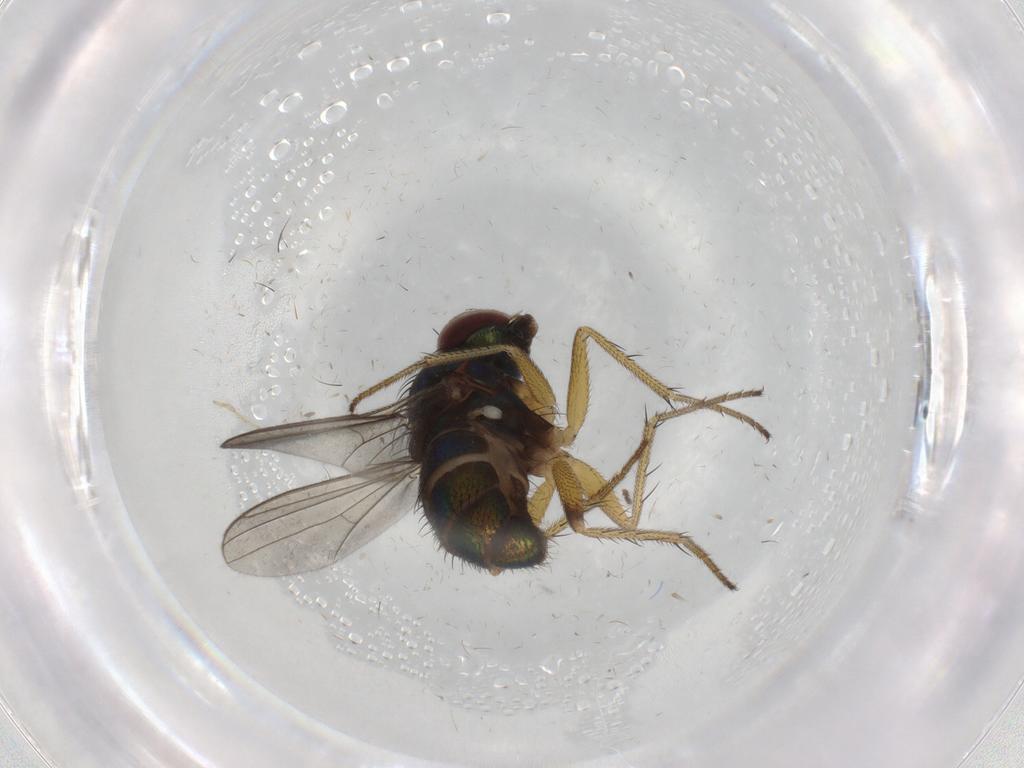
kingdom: Animalia
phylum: Arthropoda
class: Insecta
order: Diptera
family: Dolichopodidae
